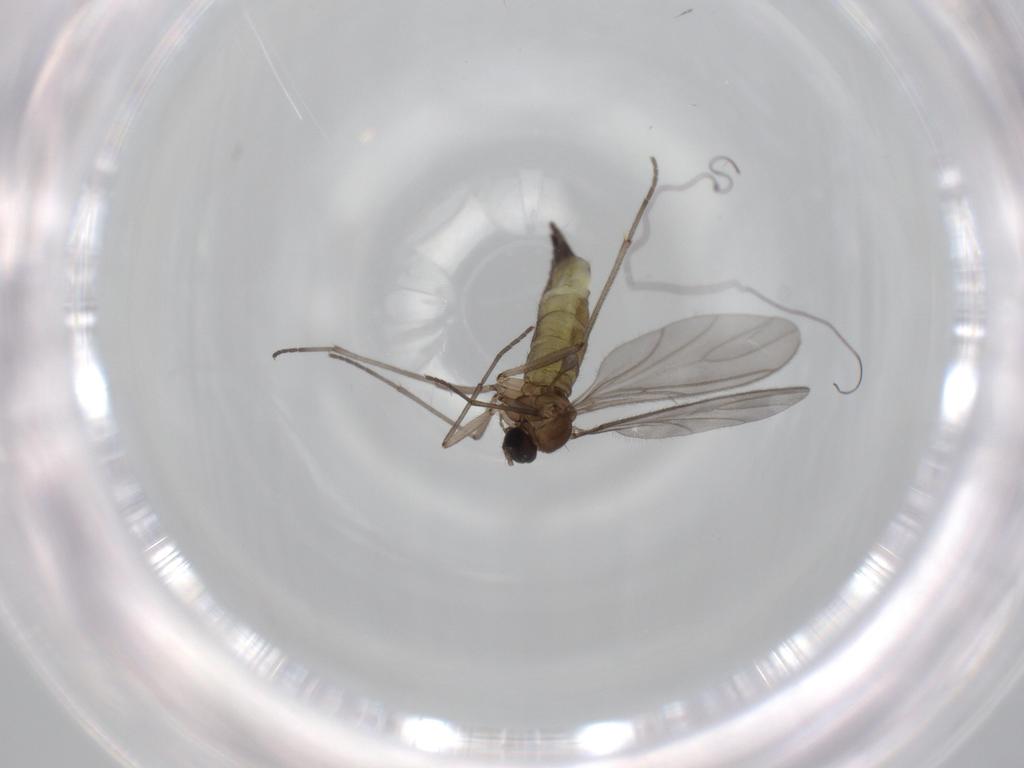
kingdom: Animalia
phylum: Arthropoda
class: Insecta
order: Diptera
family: Sciaridae
